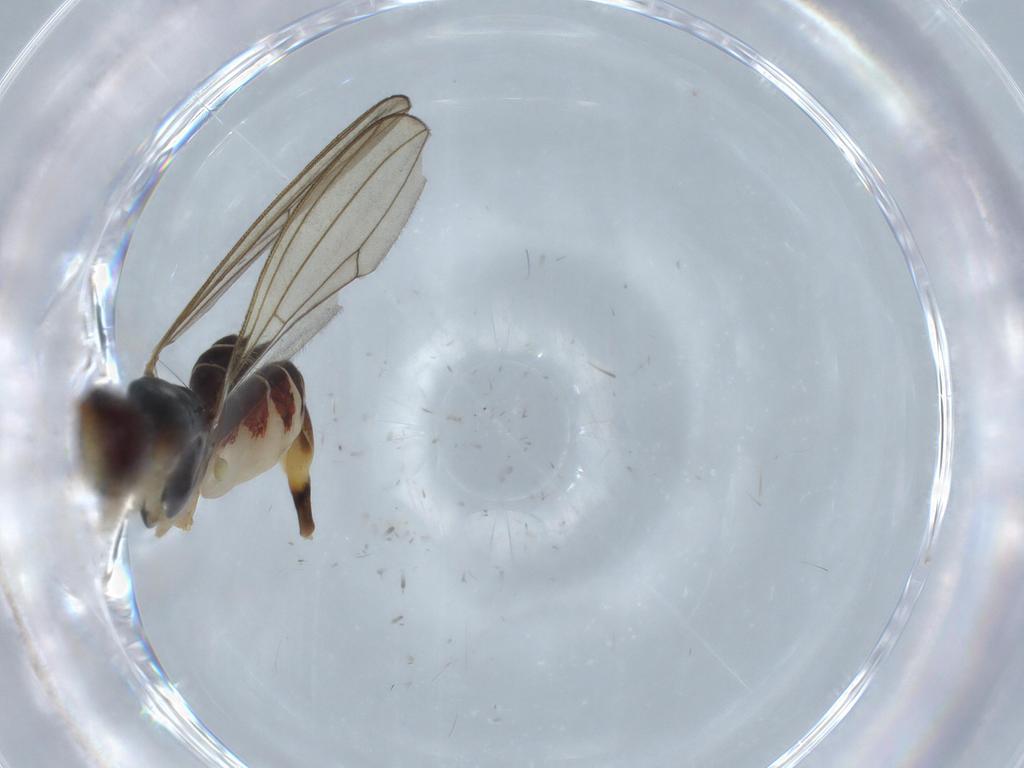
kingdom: Animalia
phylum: Arthropoda
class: Insecta
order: Diptera
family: Micropezidae
